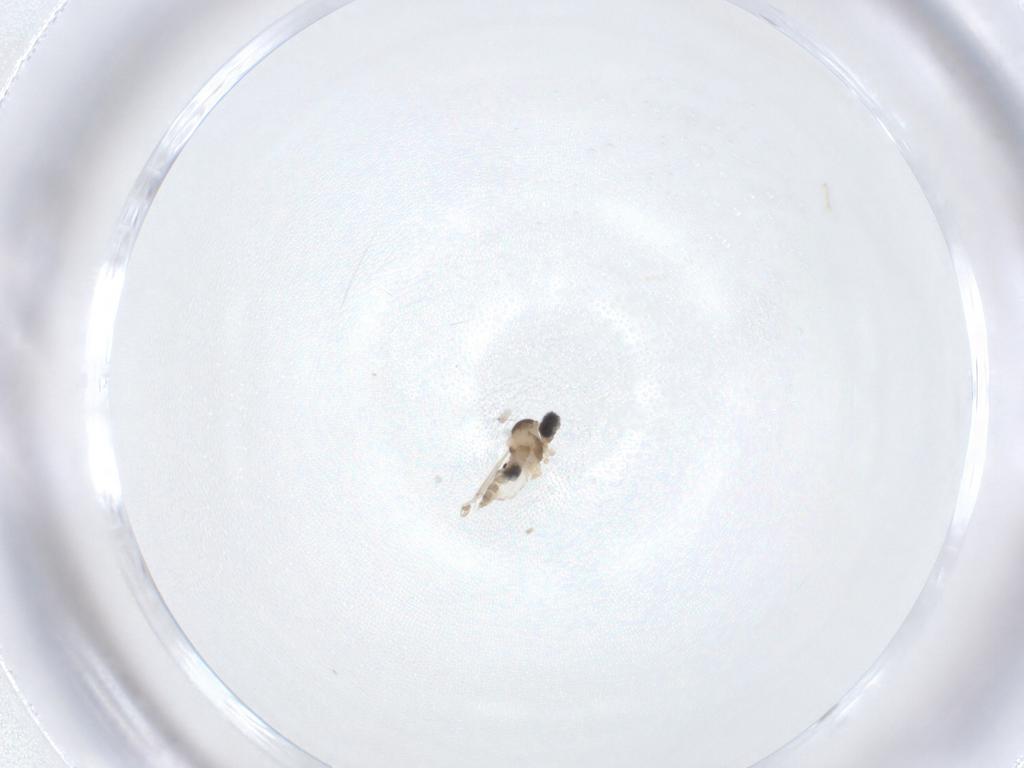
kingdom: Animalia
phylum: Arthropoda
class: Insecta
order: Diptera
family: Cecidomyiidae
